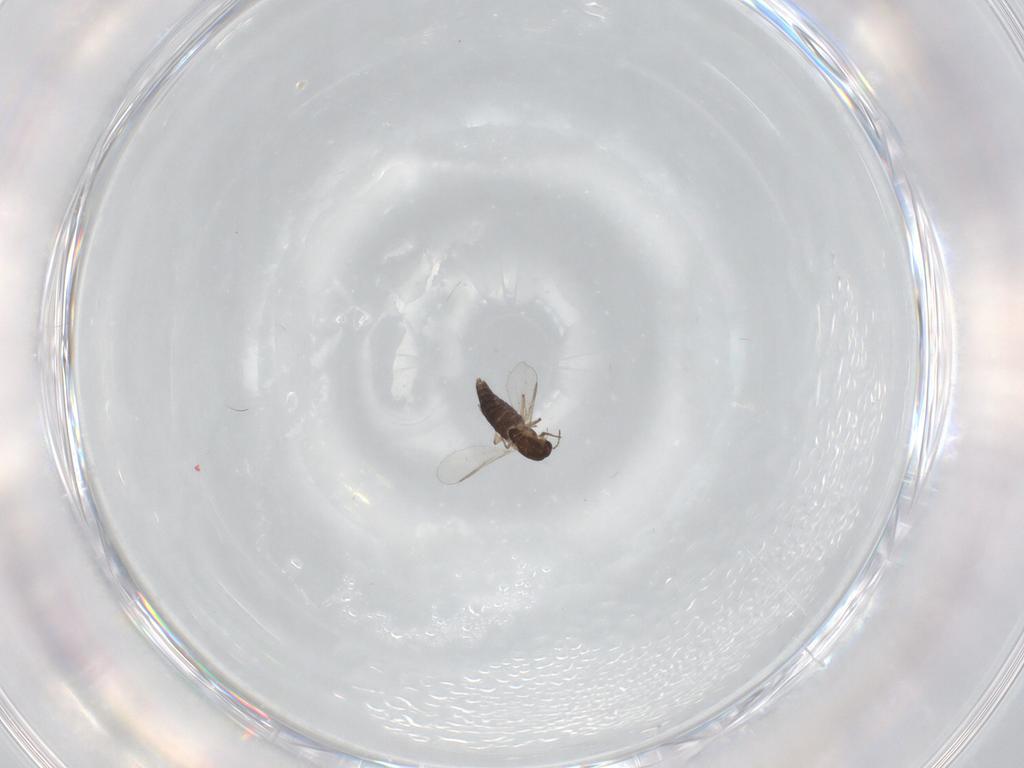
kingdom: Animalia
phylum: Arthropoda
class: Insecta
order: Diptera
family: Chironomidae
